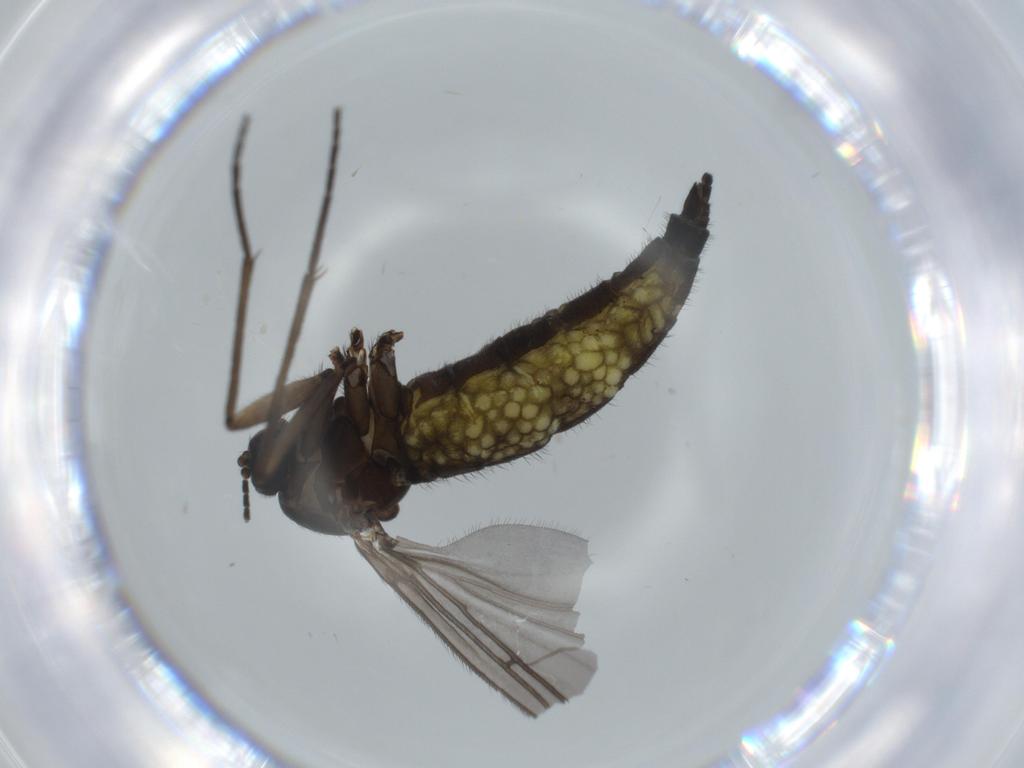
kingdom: Animalia
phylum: Arthropoda
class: Insecta
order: Diptera
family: Sciaridae
